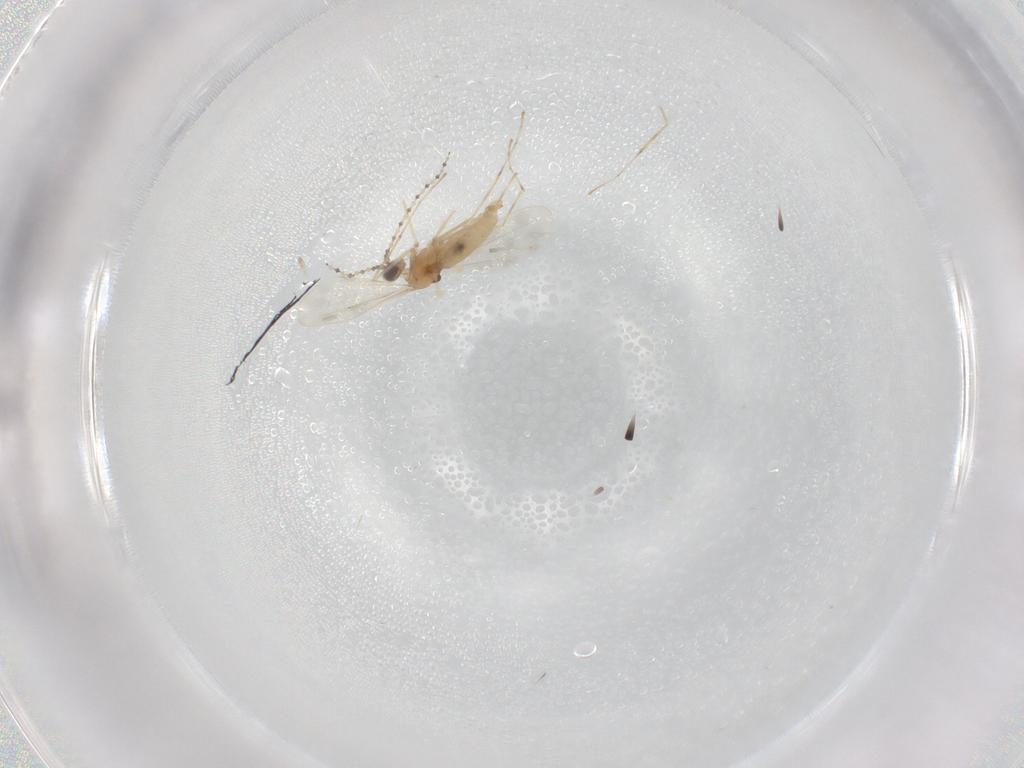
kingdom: Animalia
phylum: Arthropoda
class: Insecta
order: Diptera
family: Cecidomyiidae
